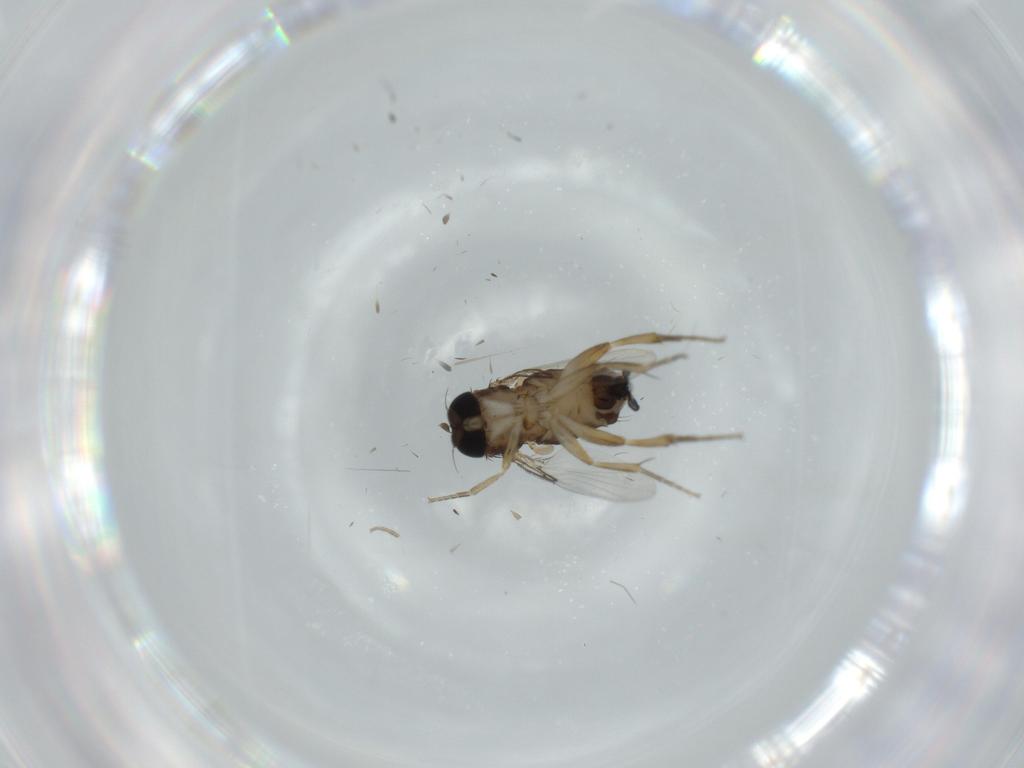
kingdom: Animalia
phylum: Arthropoda
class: Insecta
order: Diptera
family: Phoridae
